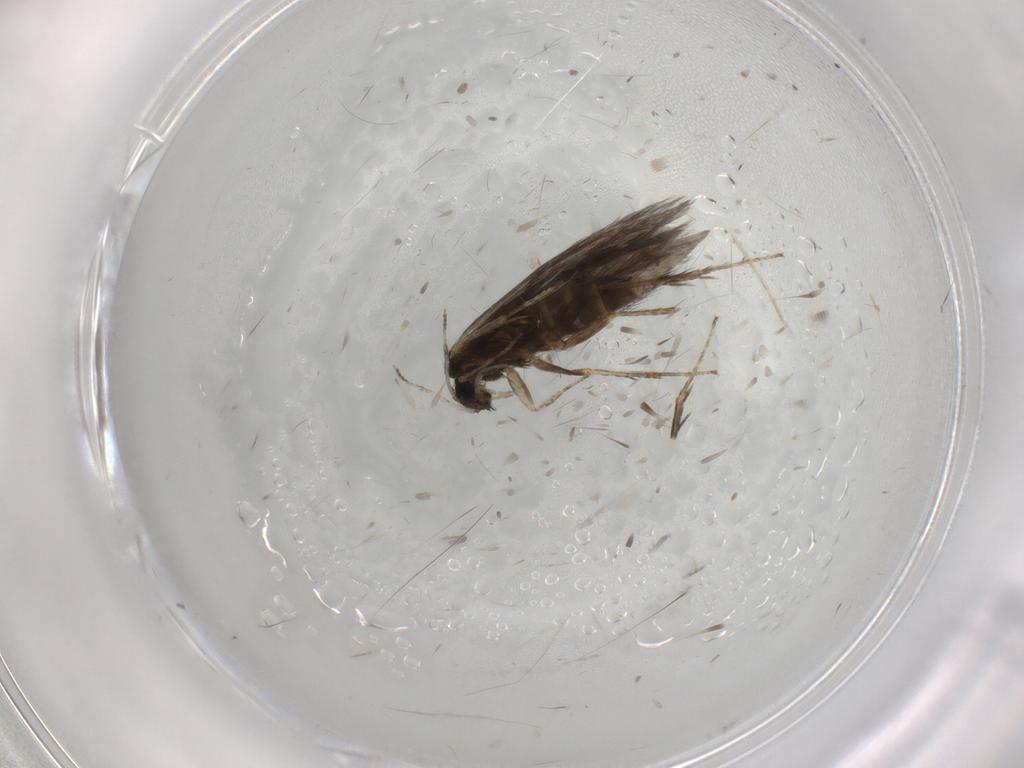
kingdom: Animalia
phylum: Arthropoda
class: Insecta
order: Trichoptera
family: Hydroptilidae
